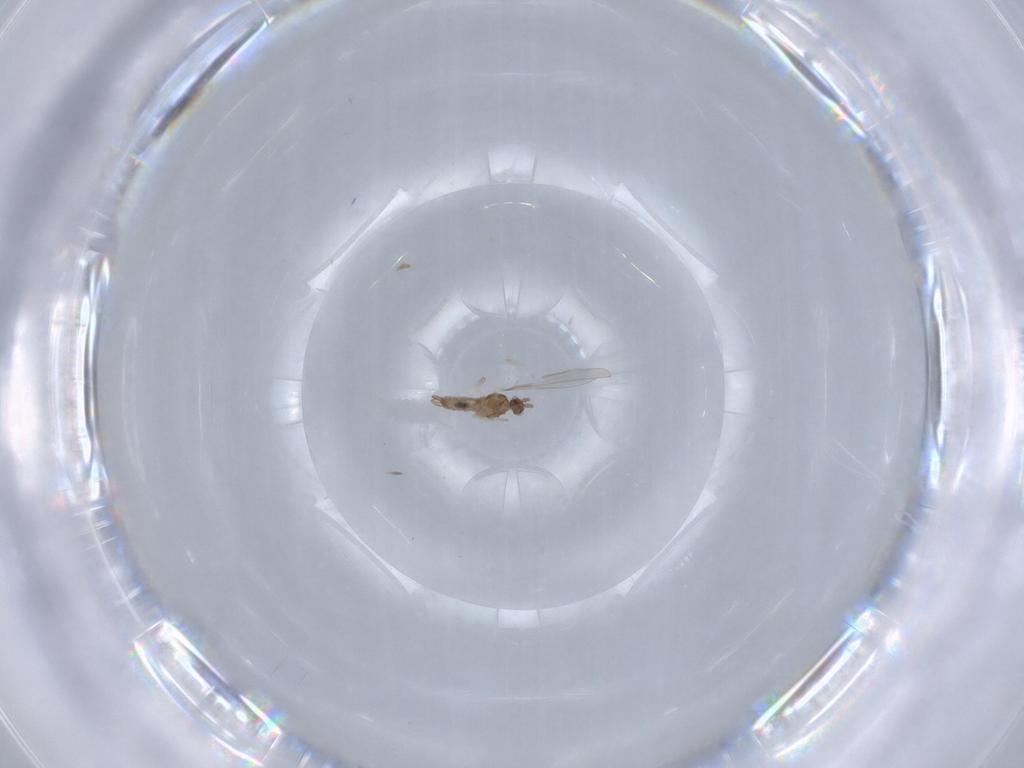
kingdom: Animalia
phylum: Arthropoda
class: Insecta
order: Diptera
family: Cecidomyiidae
